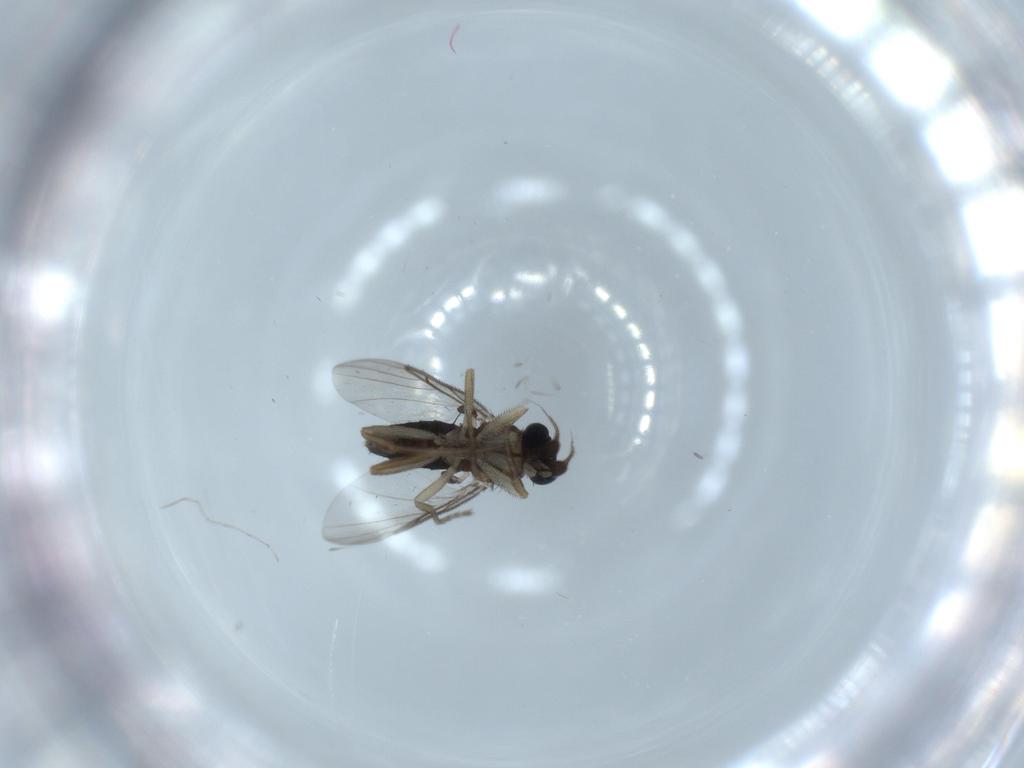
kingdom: Animalia
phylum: Arthropoda
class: Insecta
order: Diptera
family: Phoridae
